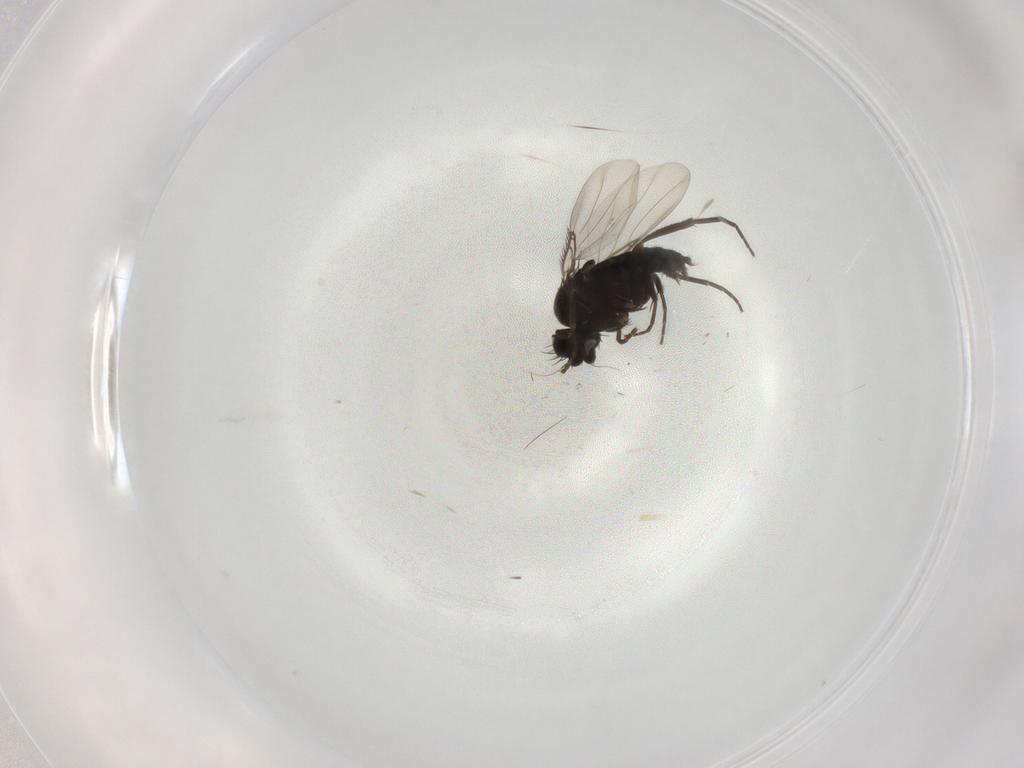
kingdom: Animalia
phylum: Arthropoda
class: Insecta
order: Diptera
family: Phoridae
